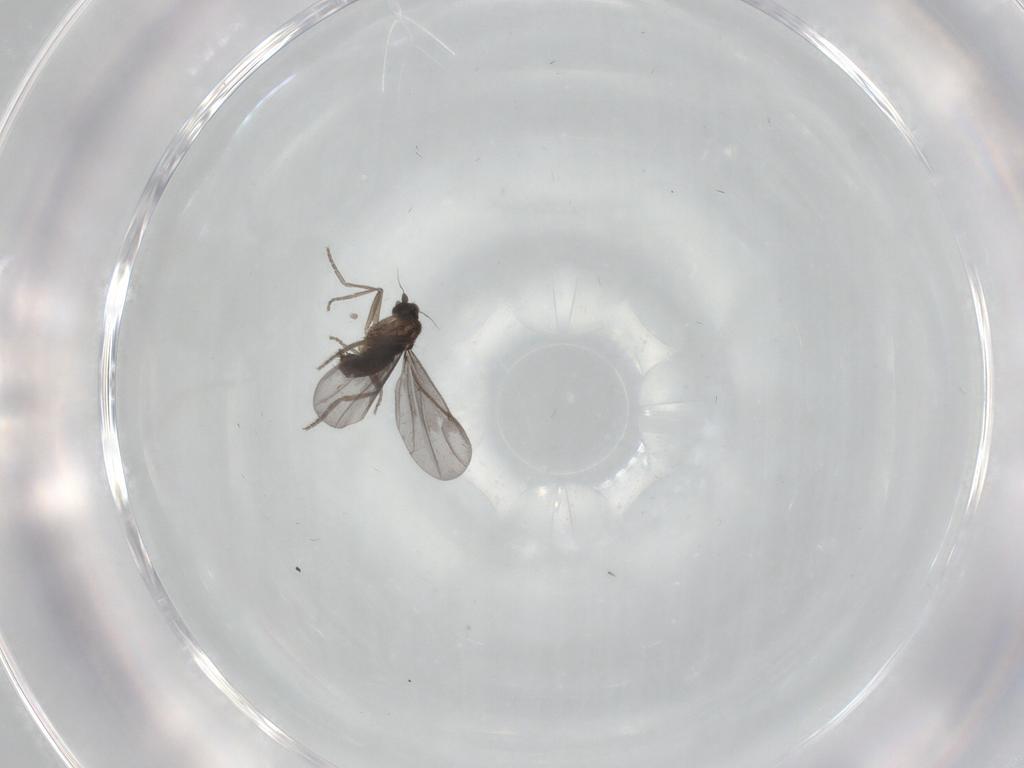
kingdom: Animalia
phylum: Arthropoda
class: Insecta
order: Diptera
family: Phoridae
